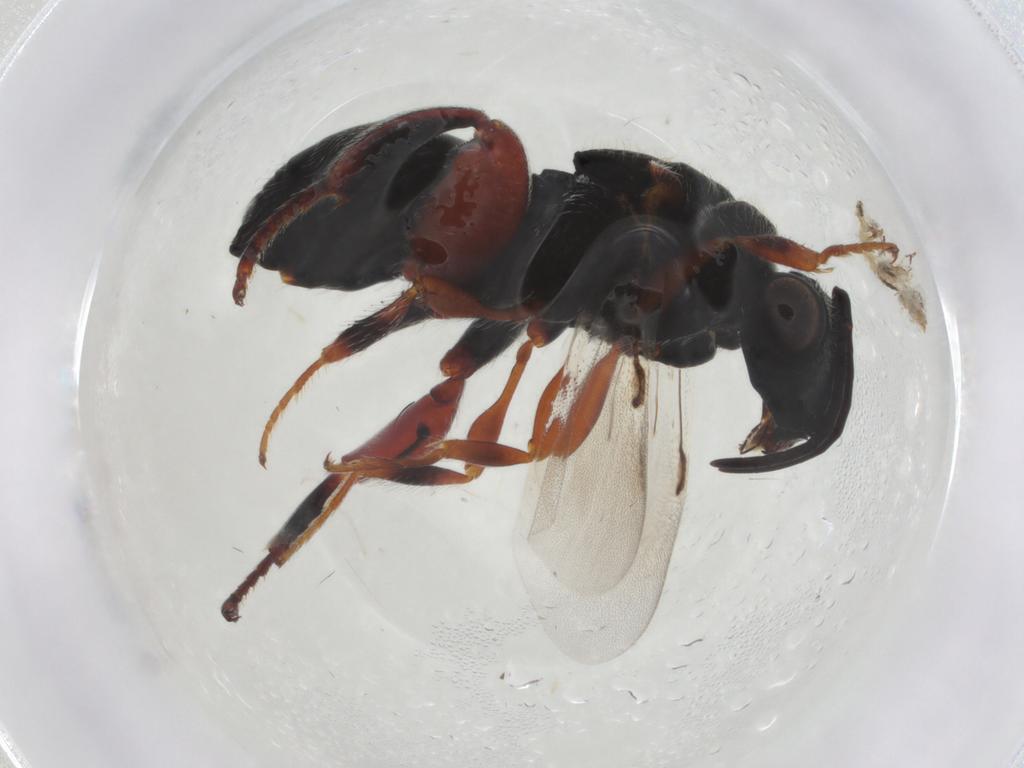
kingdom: Animalia
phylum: Arthropoda
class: Insecta
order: Hymenoptera
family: Chalcididae
